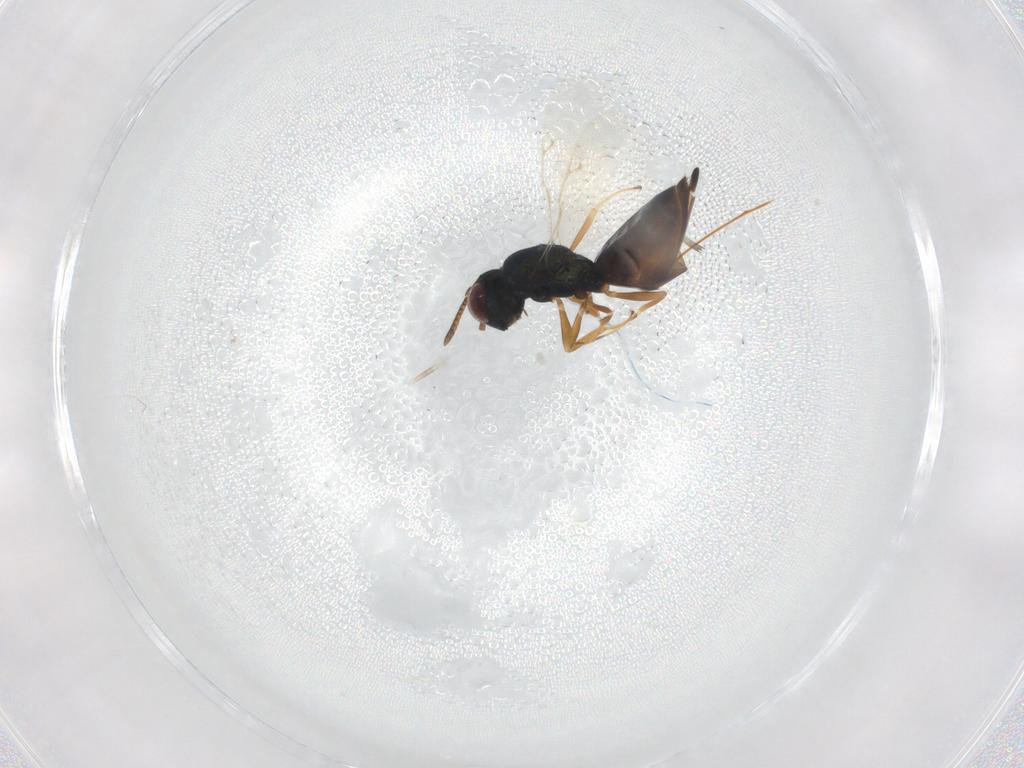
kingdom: Animalia
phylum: Arthropoda
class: Insecta
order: Hymenoptera
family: Pteromalidae
